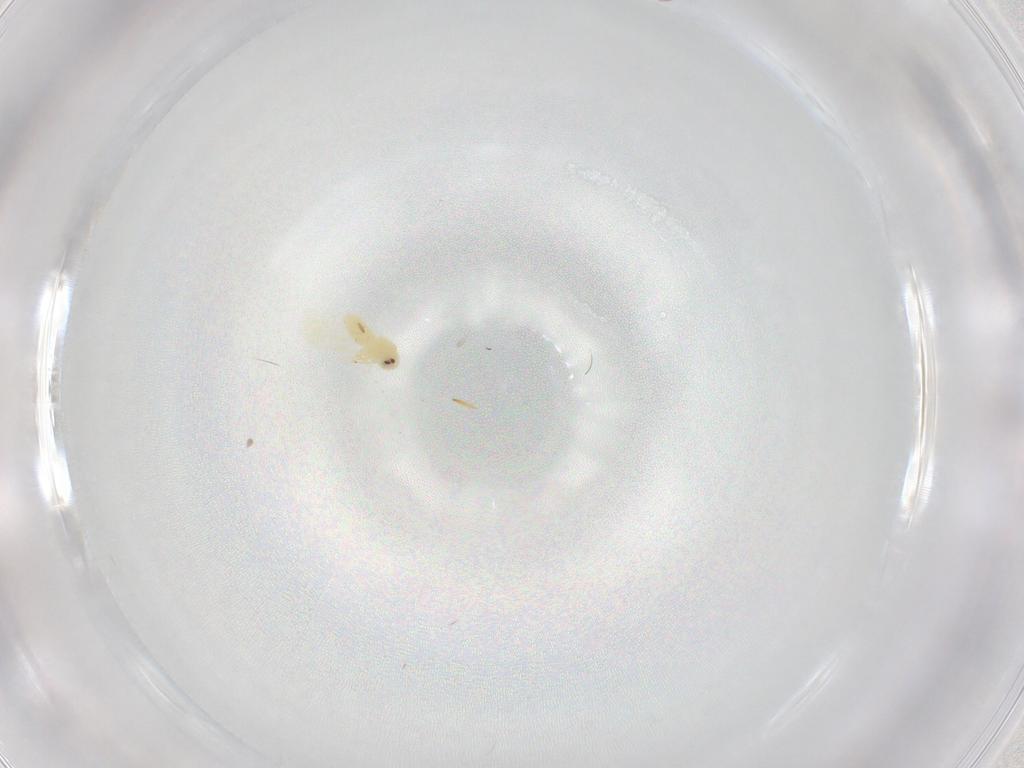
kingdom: Animalia
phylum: Arthropoda
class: Insecta
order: Hemiptera
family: Aleyrodidae
